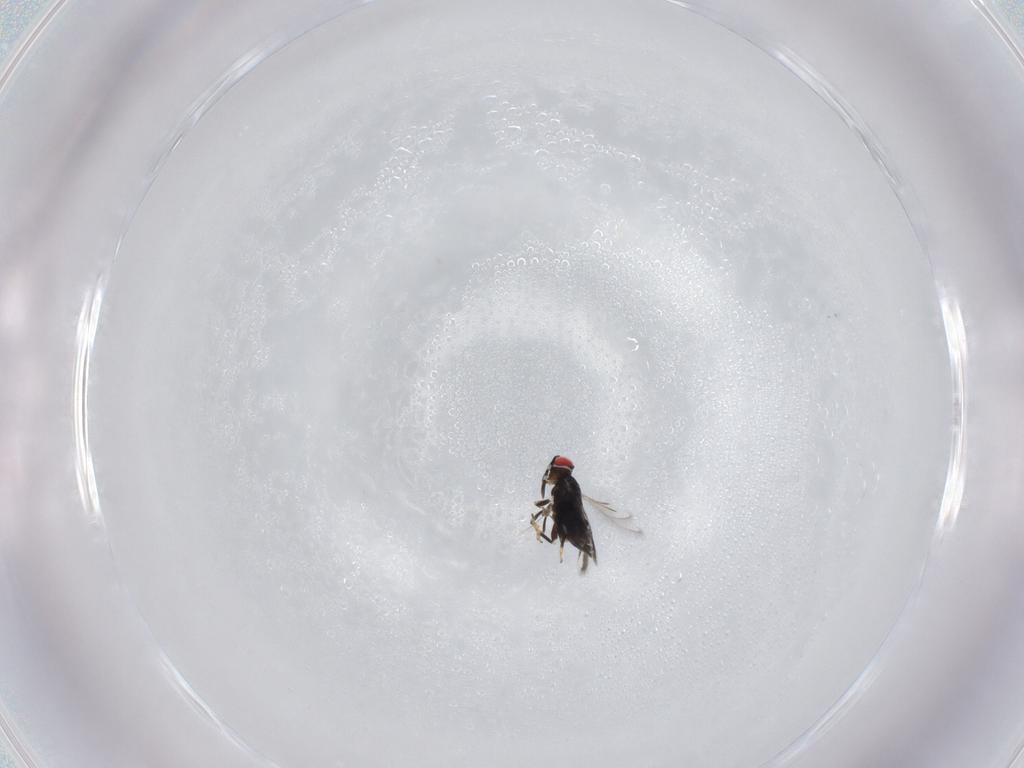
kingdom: Animalia
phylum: Arthropoda
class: Insecta
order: Hymenoptera
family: Azotidae
